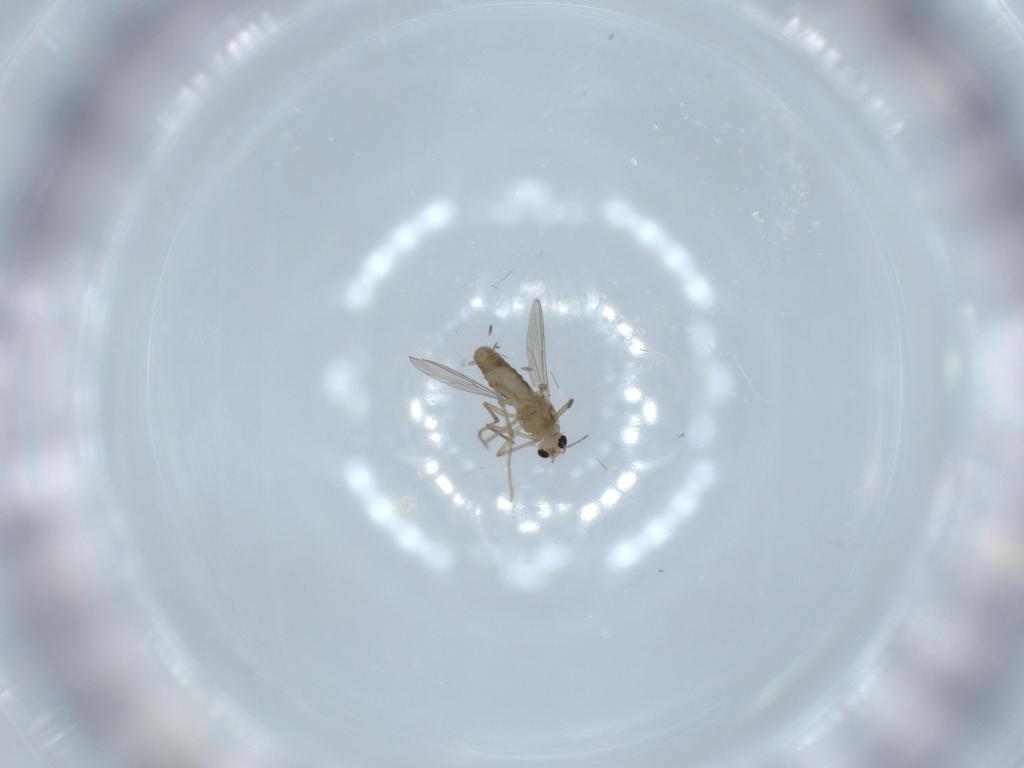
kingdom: Animalia
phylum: Arthropoda
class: Insecta
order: Diptera
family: Chironomidae
